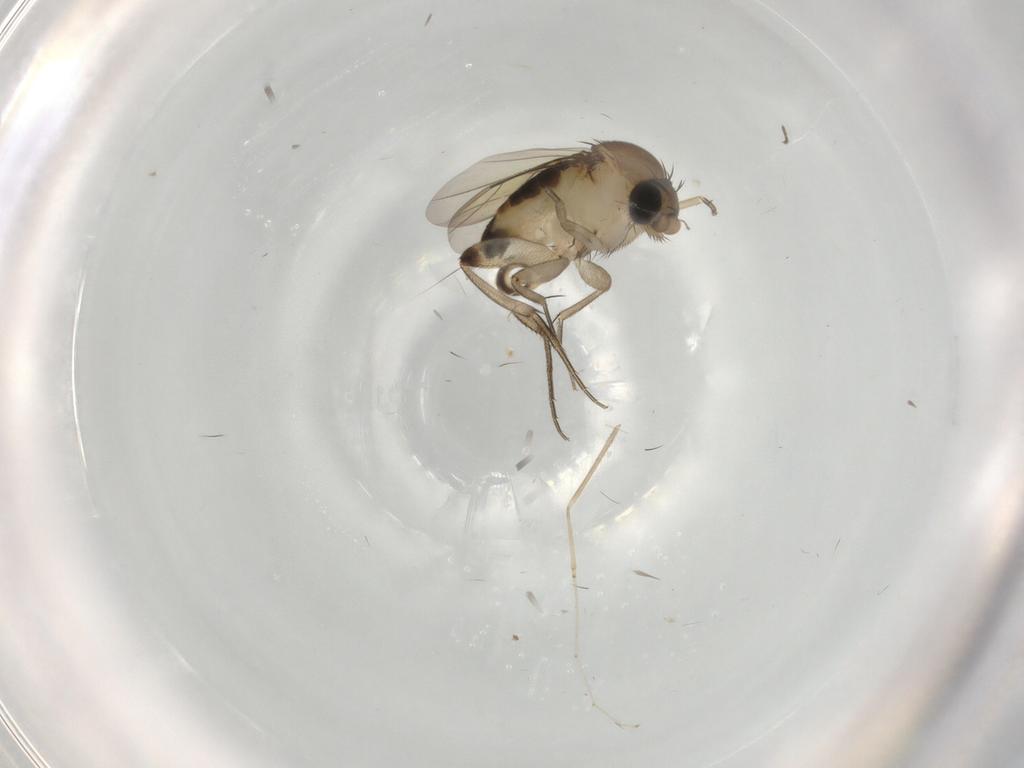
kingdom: Animalia
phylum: Arthropoda
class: Insecta
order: Diptera
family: Phoridae
